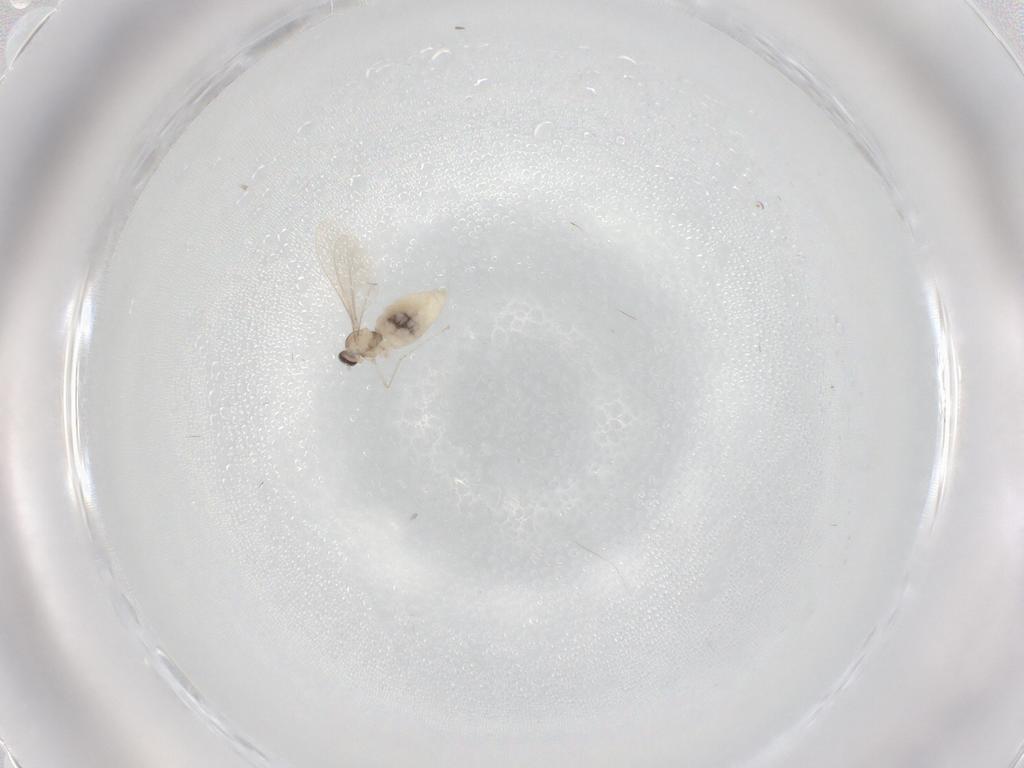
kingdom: Animalia
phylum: Arthropoda
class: Insecta
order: Diptera
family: Cecidomyiidae
